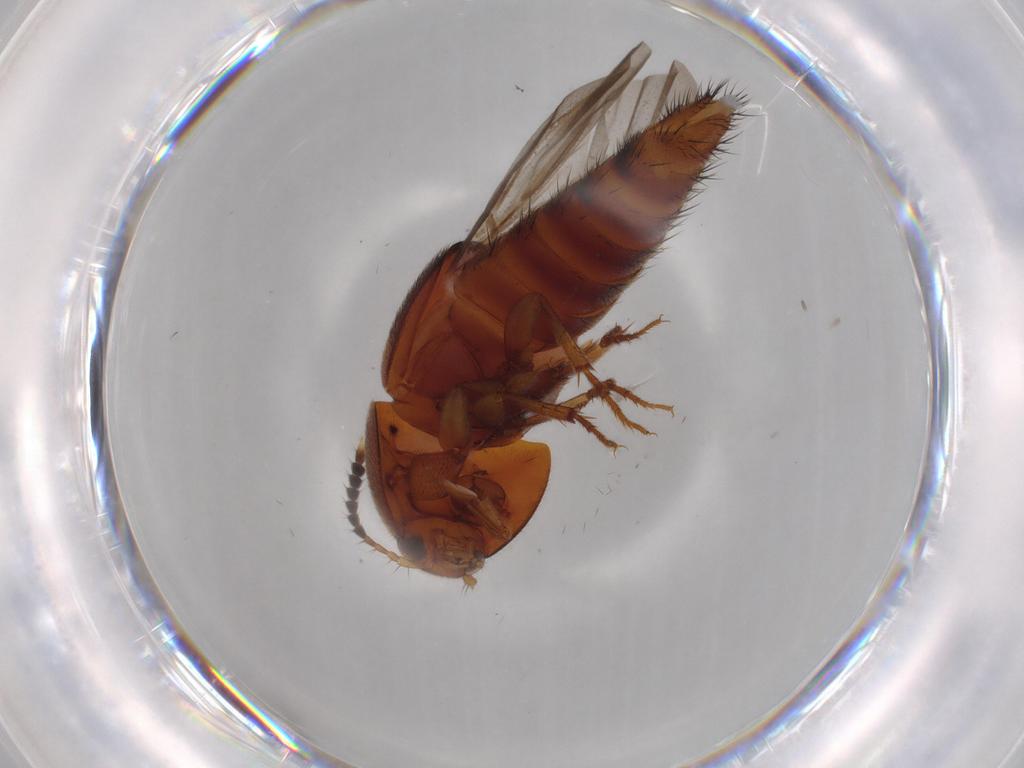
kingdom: Animalia
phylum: Arthropoda
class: Insecta
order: Coleoptera
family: Staphylinidae
